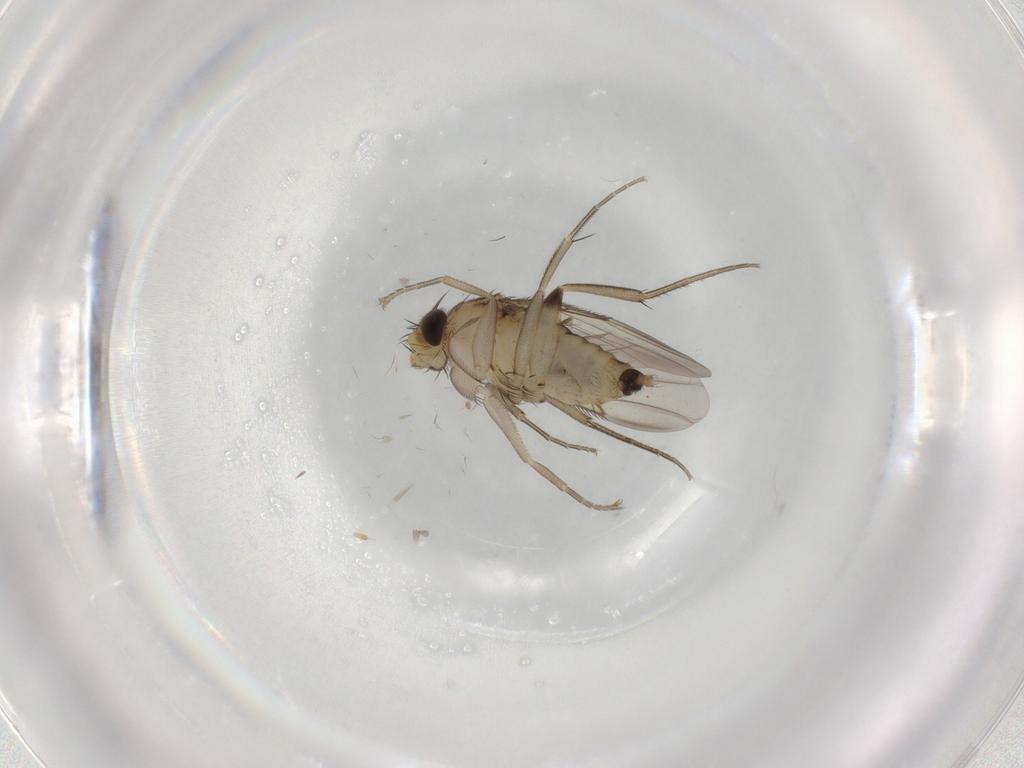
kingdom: Animalia
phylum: Arthropoda
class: Insecta
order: Diptera
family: Phoridae
